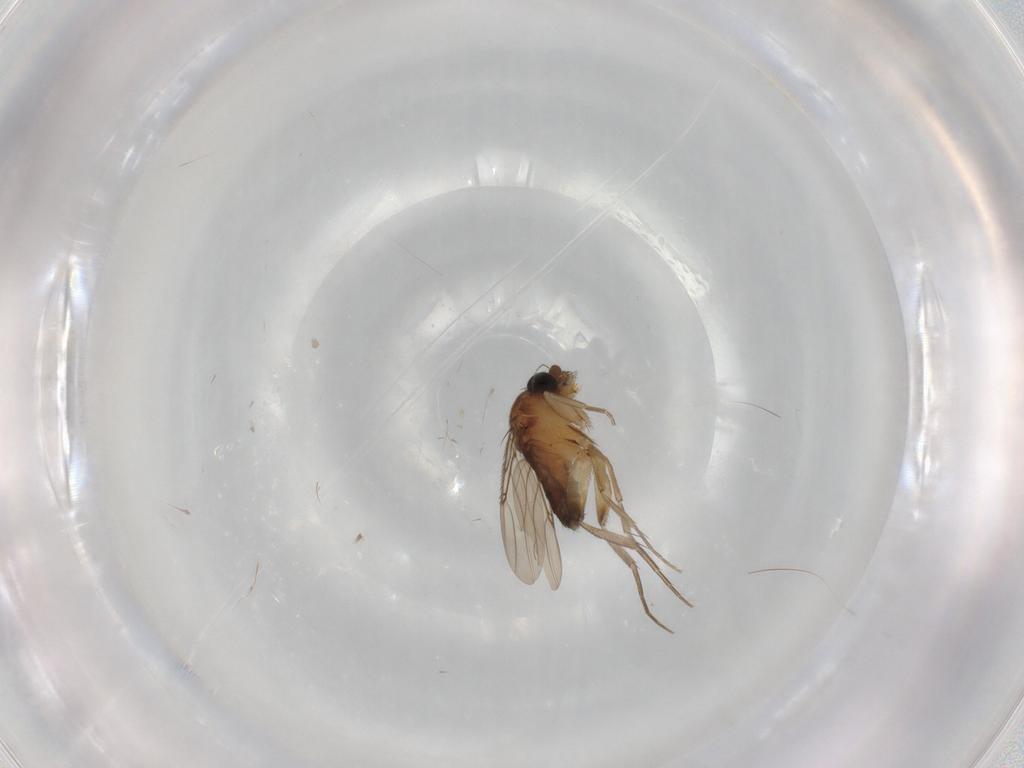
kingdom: Animalia
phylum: Arthropoda
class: Insecta
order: Diptera
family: Phoridae
